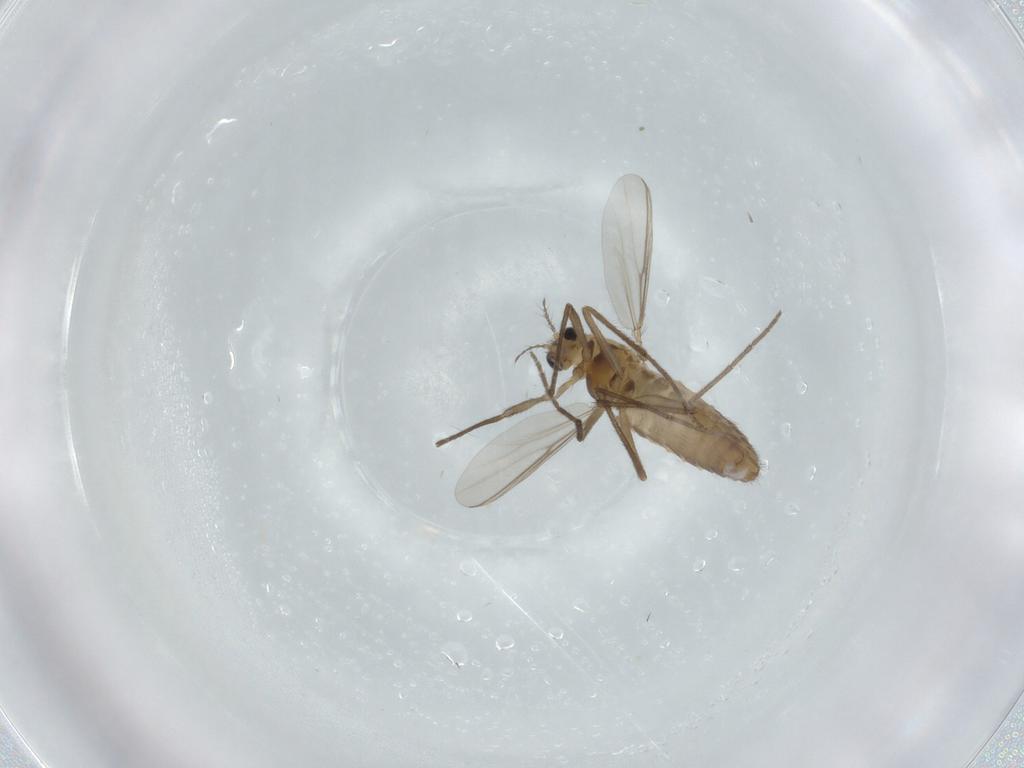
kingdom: Animalia
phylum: Arthropoda
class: Insecta
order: Diptera
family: Chironomidae
